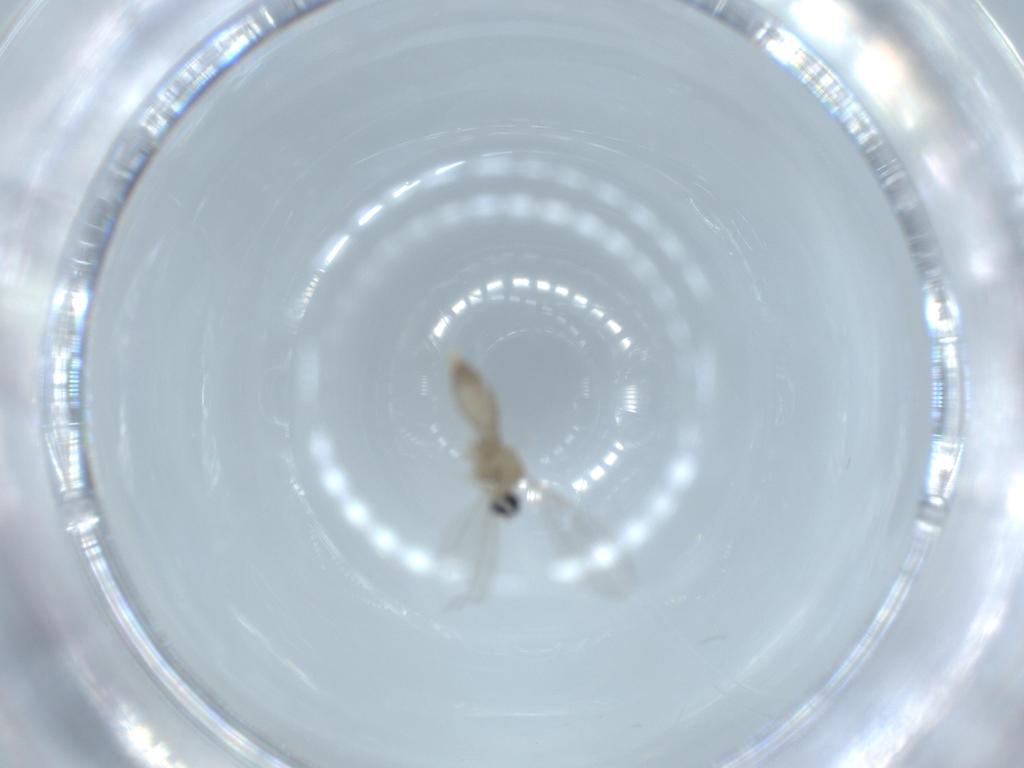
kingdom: Animalia
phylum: Arthropoda
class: Insecta
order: Diptera
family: Cecidomyiidae
